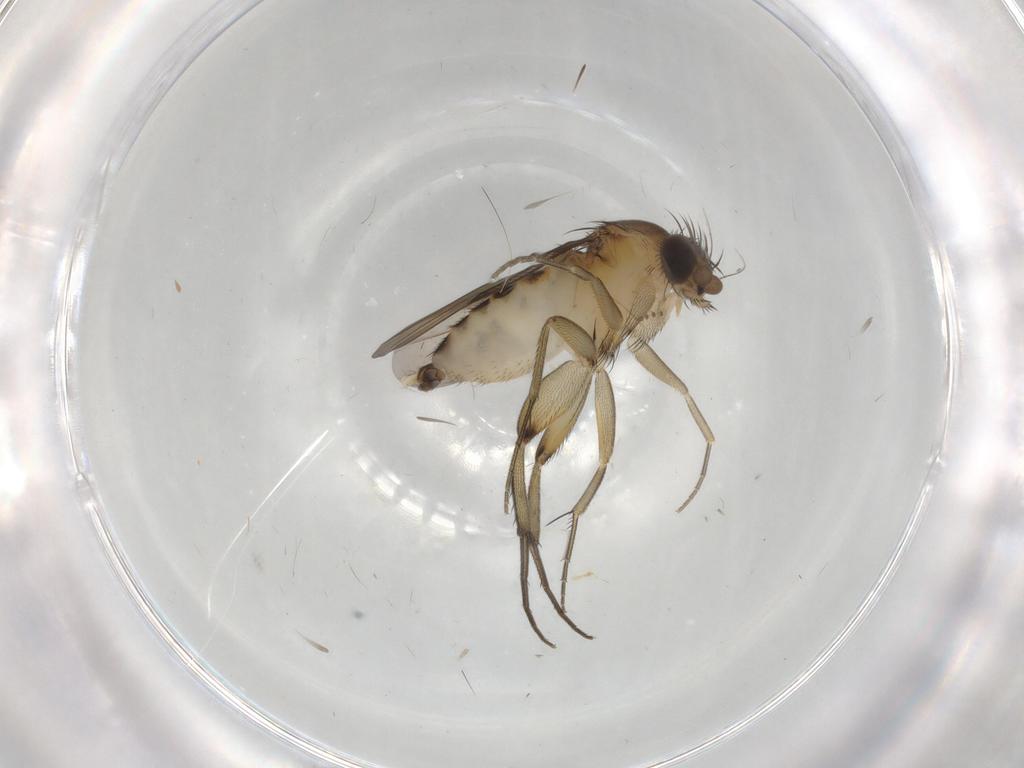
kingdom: Animalia
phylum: Arthropoda
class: Insecta
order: Diptera
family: Phoridae
